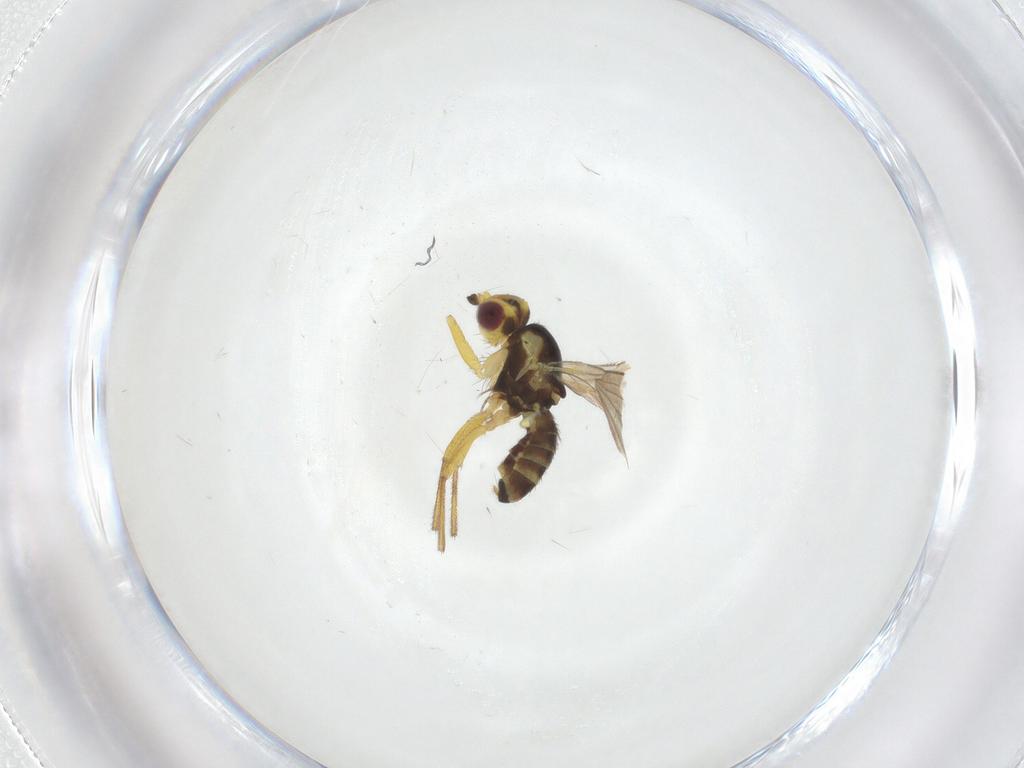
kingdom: Animalia
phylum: Arthropoda
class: Insecta
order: Diptera
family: Agromyzidae
